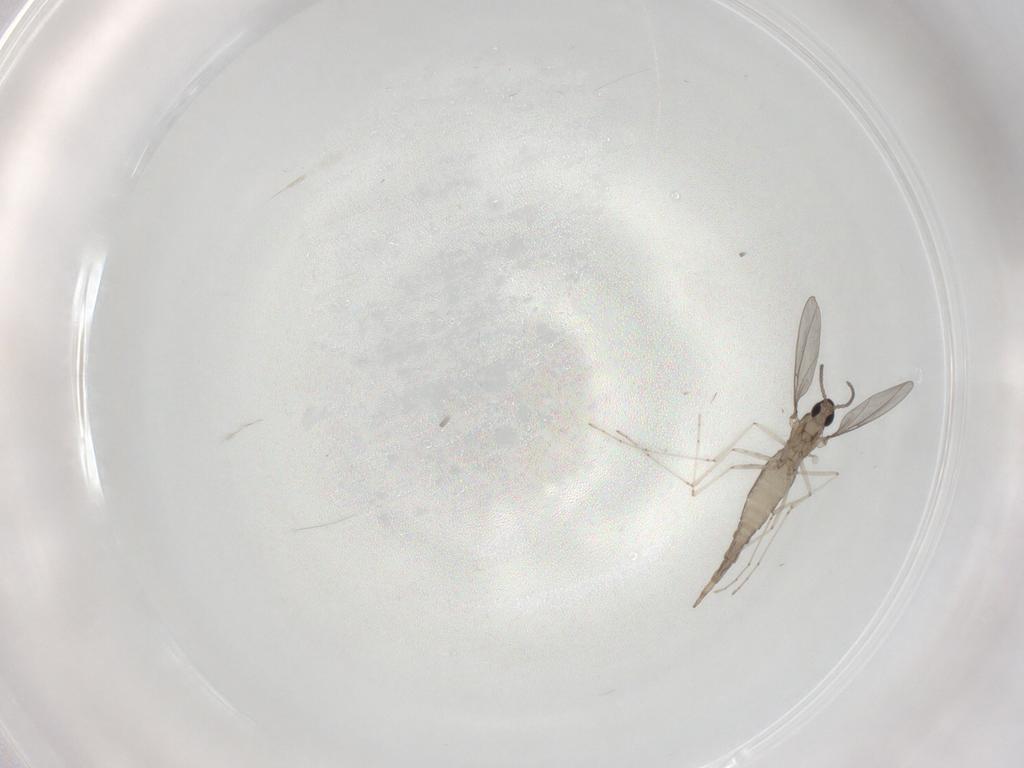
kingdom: Animalia
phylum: Arthropoda
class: Insecta
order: Diptera
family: Cecidomyiidae
